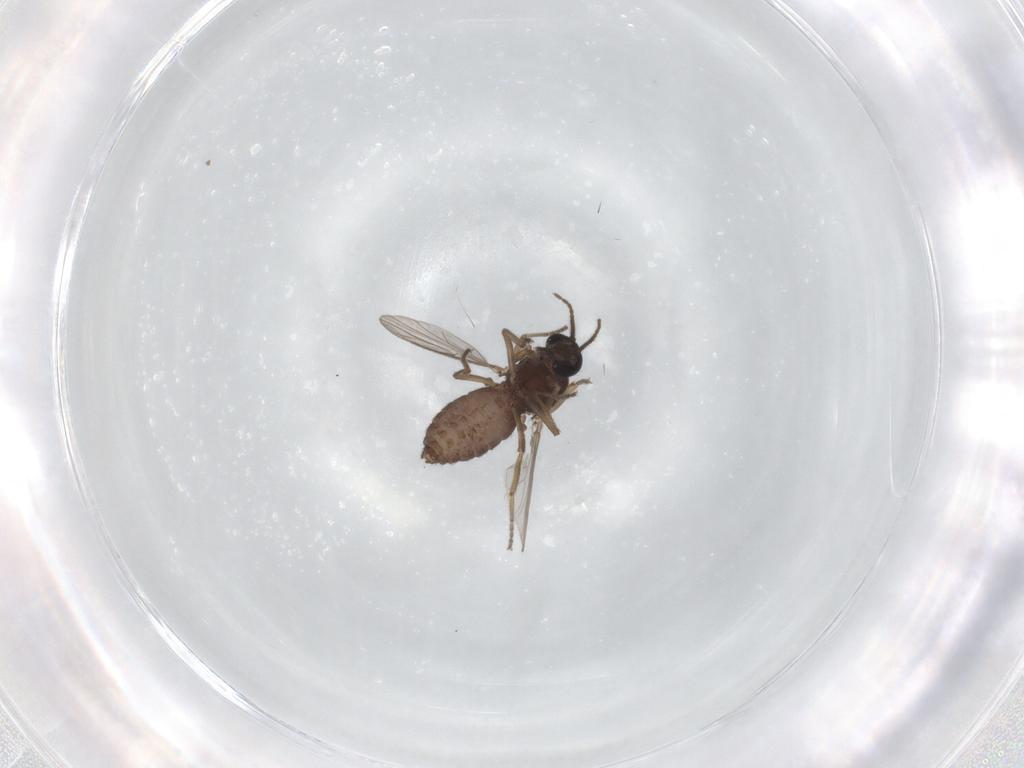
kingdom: Animalia
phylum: Arthropoda
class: Insecta
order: Diptera
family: Ceratopogonidae
